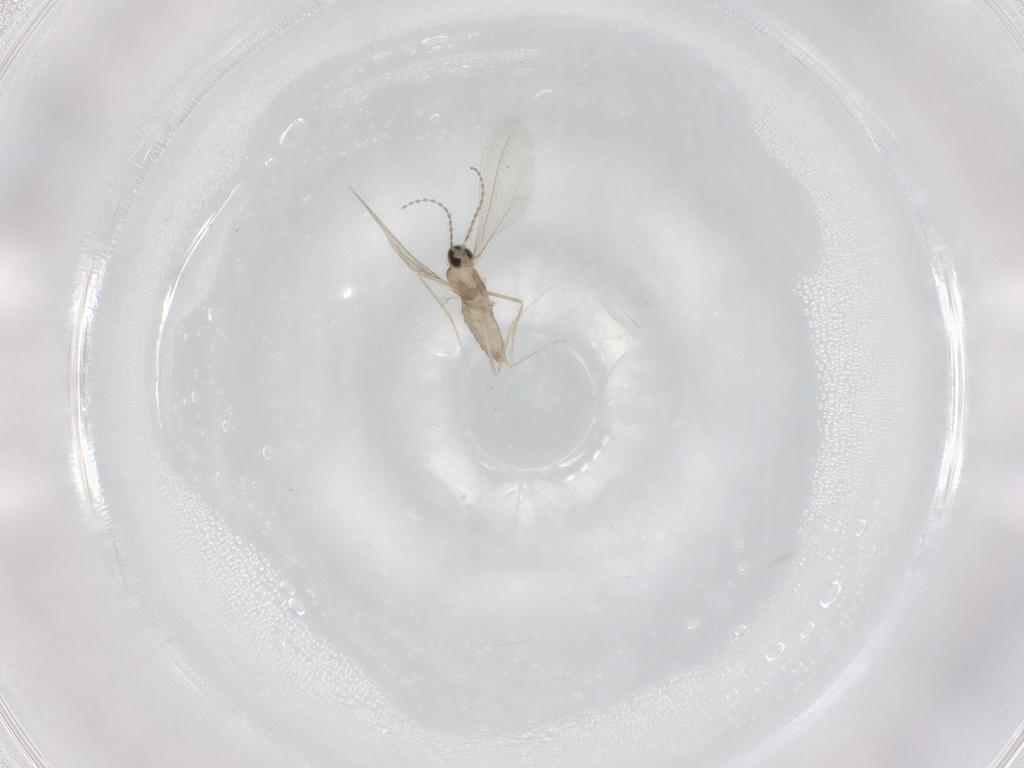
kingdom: Animalia
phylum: Arthropoda
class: Insecta
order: Diptera
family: Cecidomyiidae
